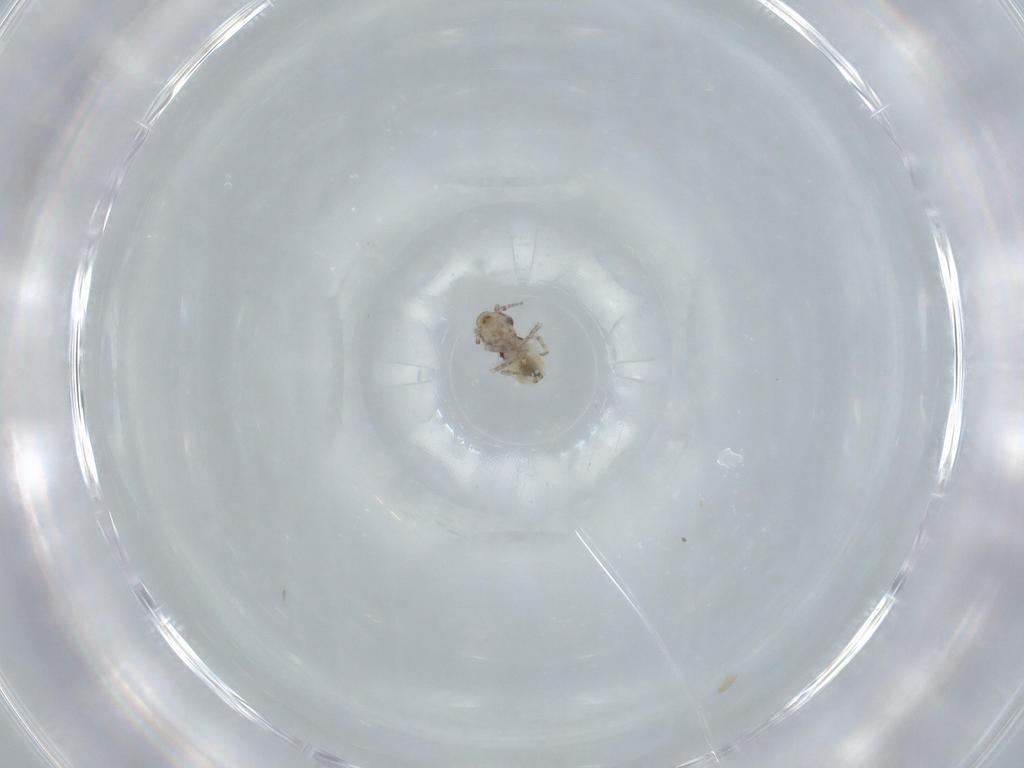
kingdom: Animalia
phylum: Arthropoda
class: Insecta
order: Psocodea
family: Lepidopsocidae
